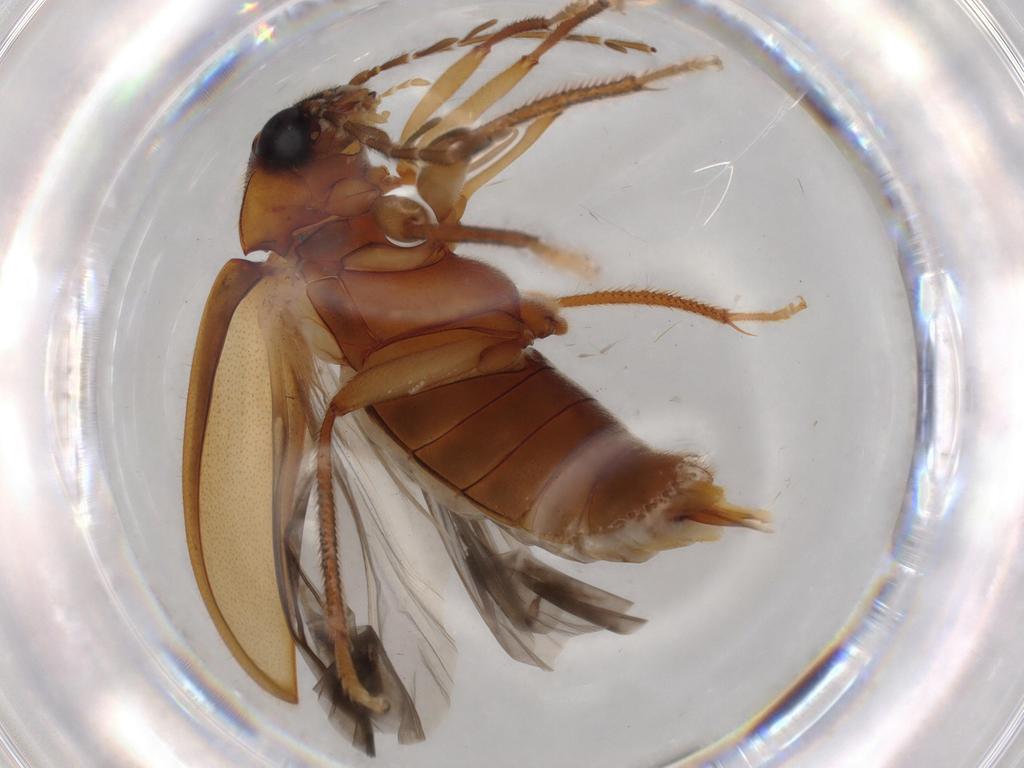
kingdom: Animalia
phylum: Arthropoda
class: Insecta
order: Coleoptera
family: Ptilodactylidae
